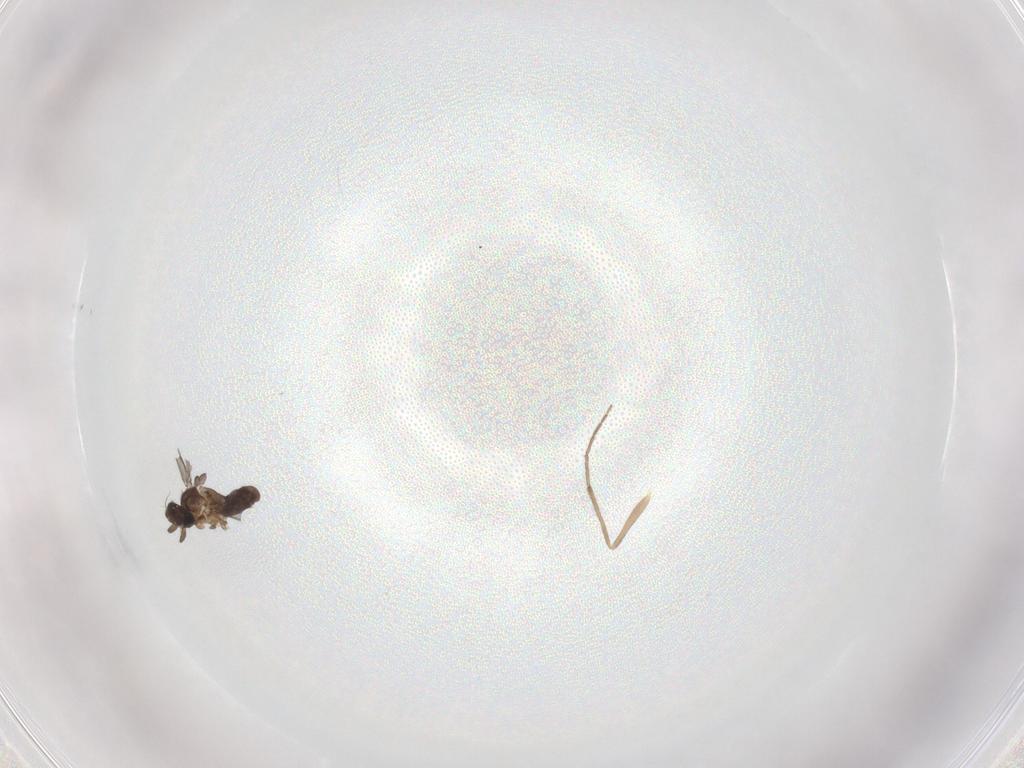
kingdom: Animalia
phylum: Arthropoda
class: Insecta
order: Diptera
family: Chironomidae
